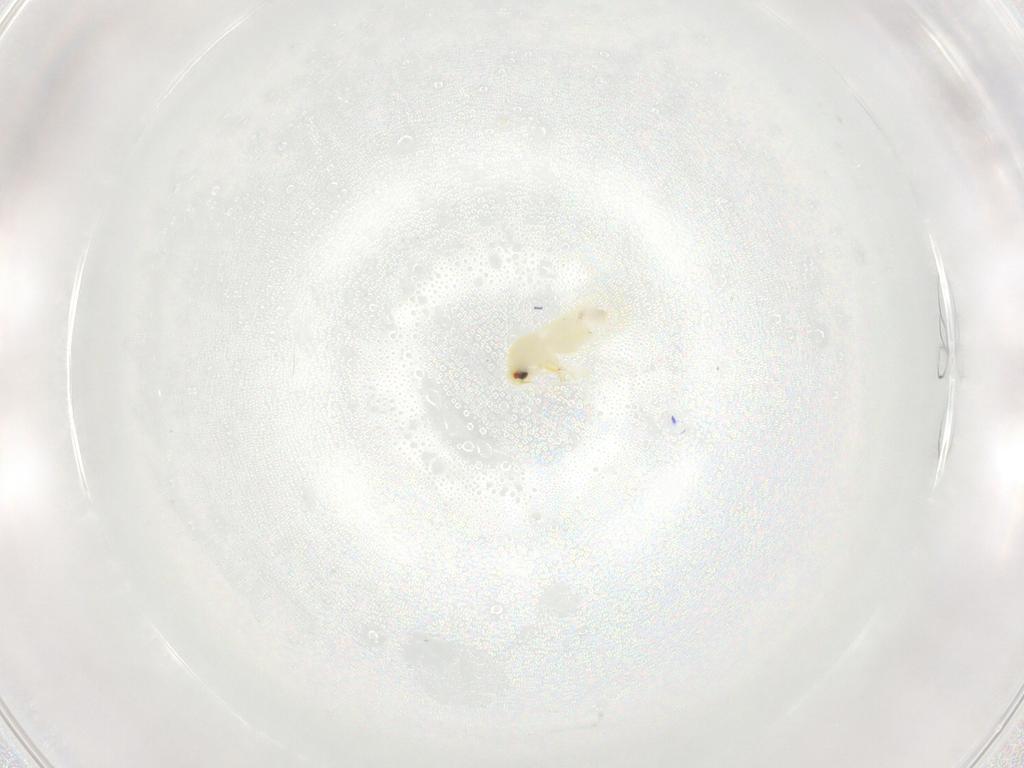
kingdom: Animalia
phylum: Arthropoda
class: Insecta
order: Hemiptera
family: Aleyrodidae
